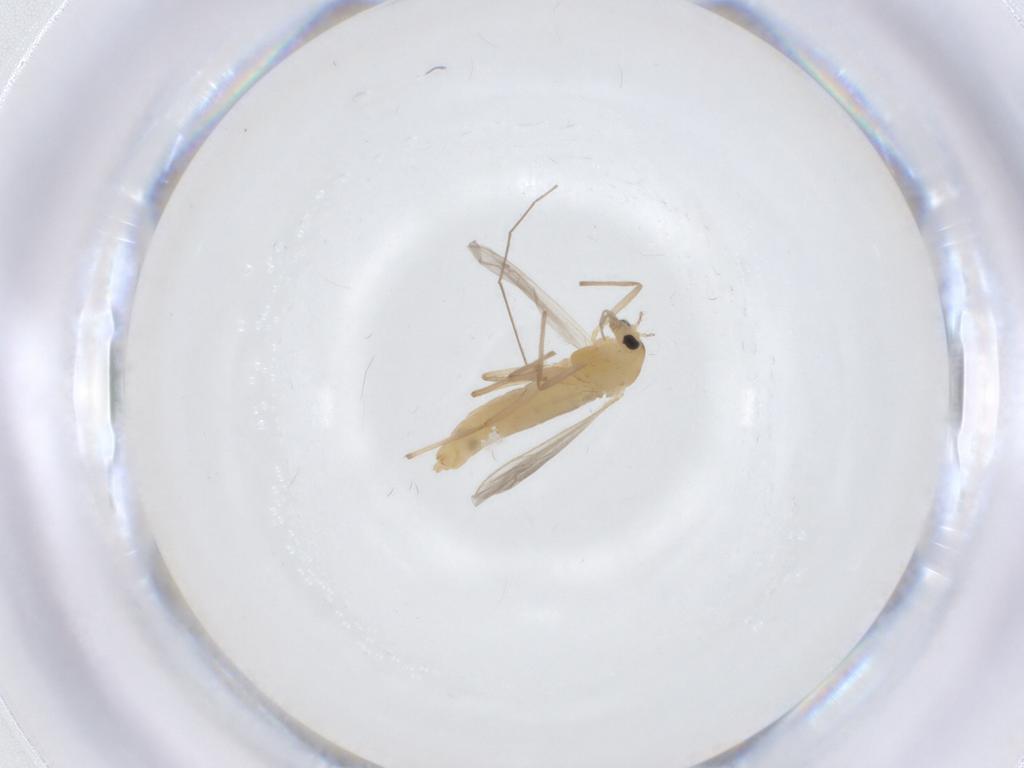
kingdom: Animalia
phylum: Arthropoda
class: Insecta
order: Diptera
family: Chironomidae
